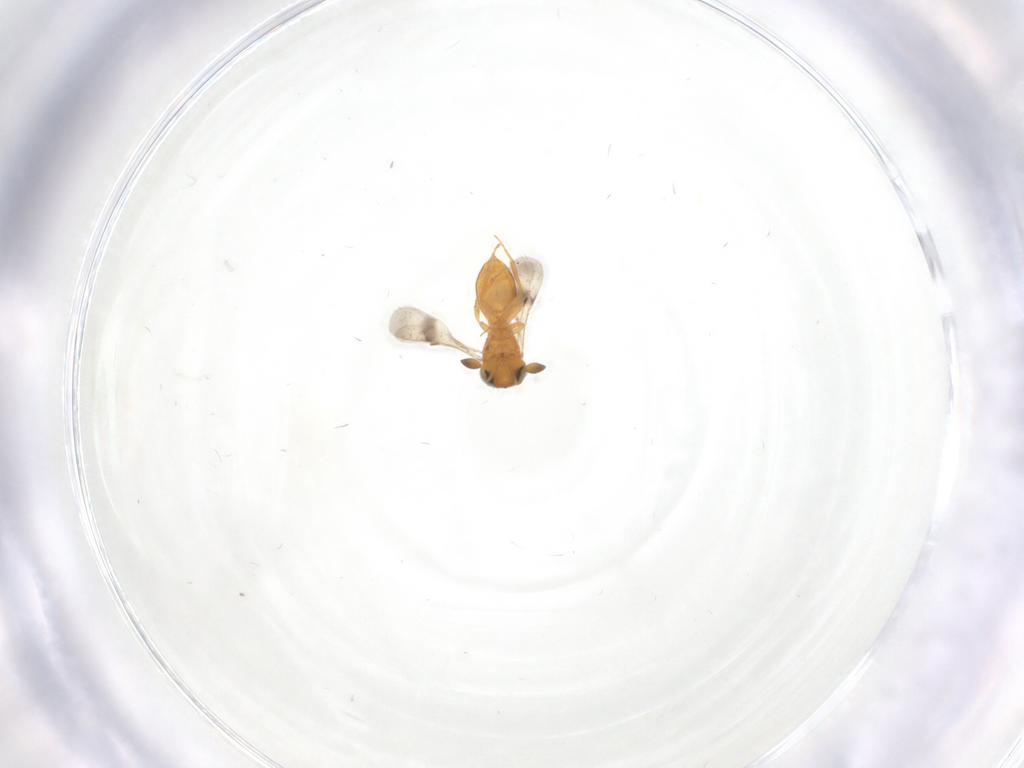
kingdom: Animalia
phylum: Arthropoda
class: Insecta
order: Hymenoptera
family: Scelionidae
